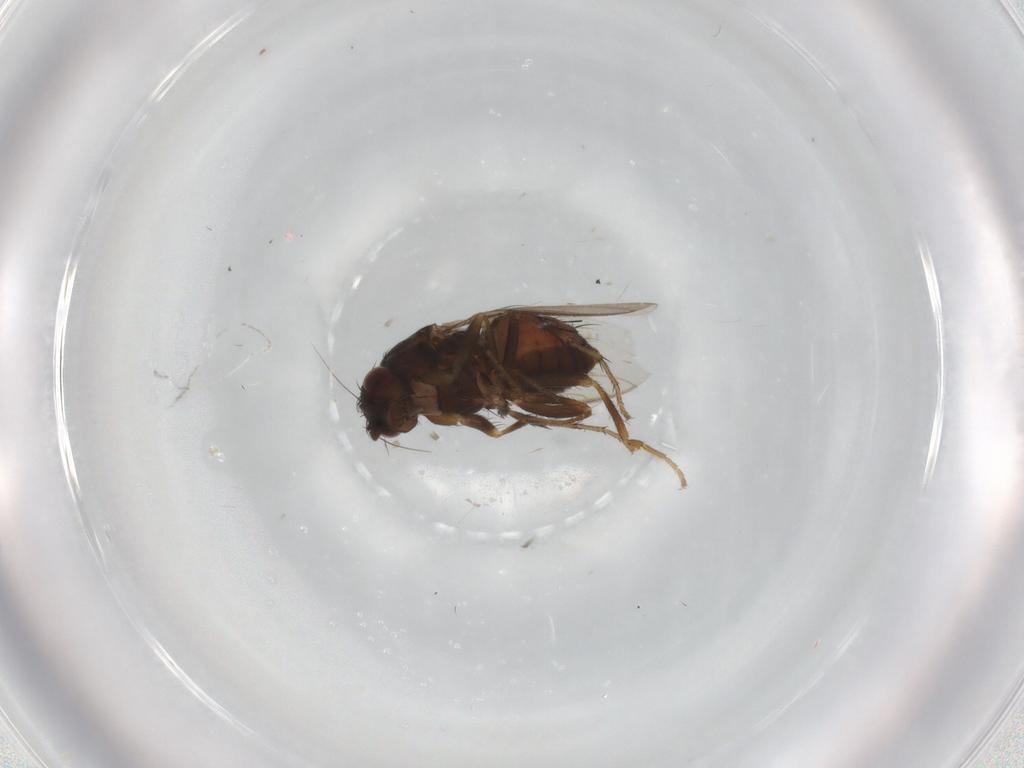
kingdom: Animalia
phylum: Arthropoda
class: Insecta
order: Diptera
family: Sphaeroceridae
